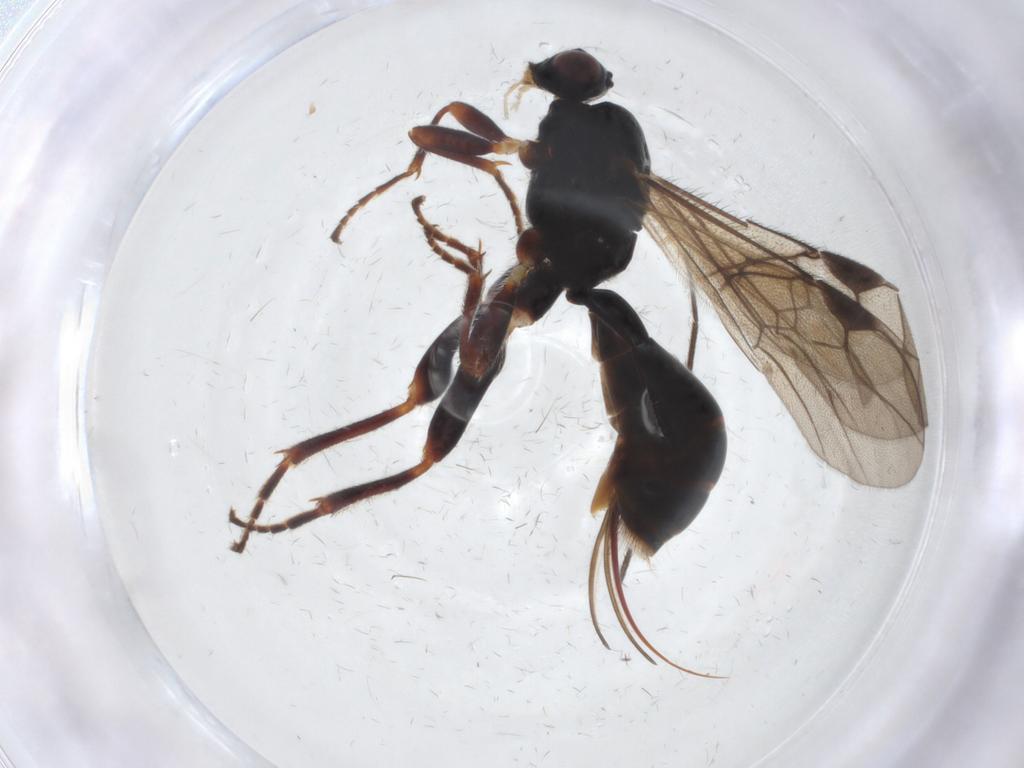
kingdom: Animalia
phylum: Arthropoda
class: Insecta
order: Hymenoptera
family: Braconidae
